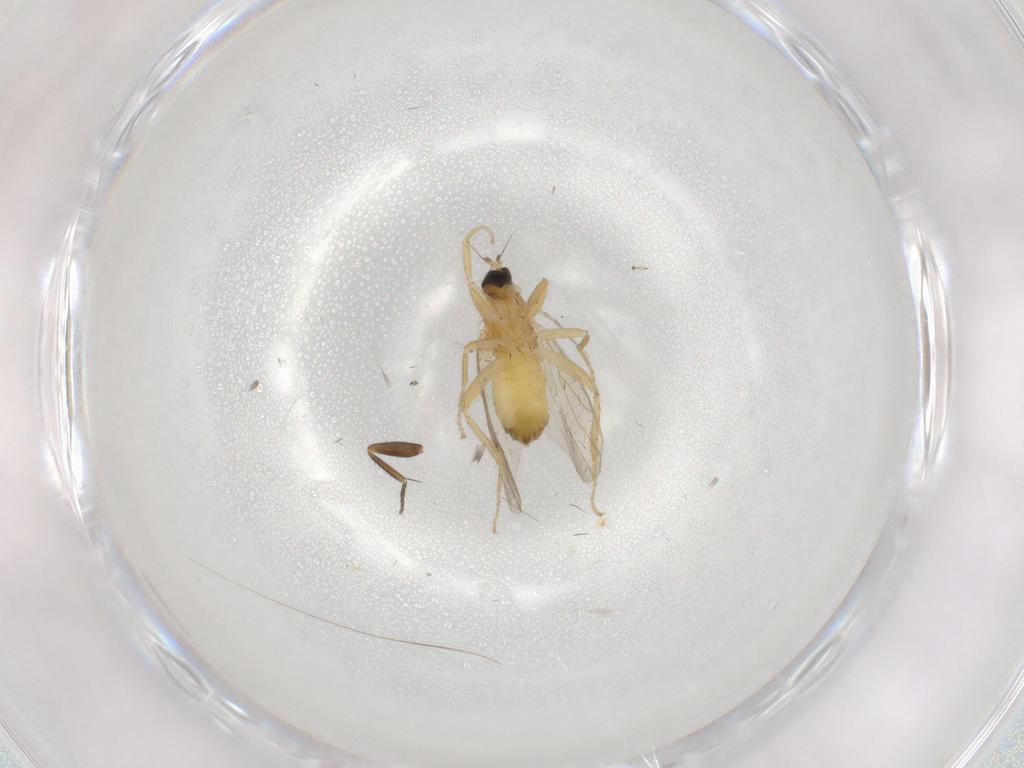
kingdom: Animalia
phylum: Arthropoda
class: Insecta
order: Diptera
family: Hybotidae
